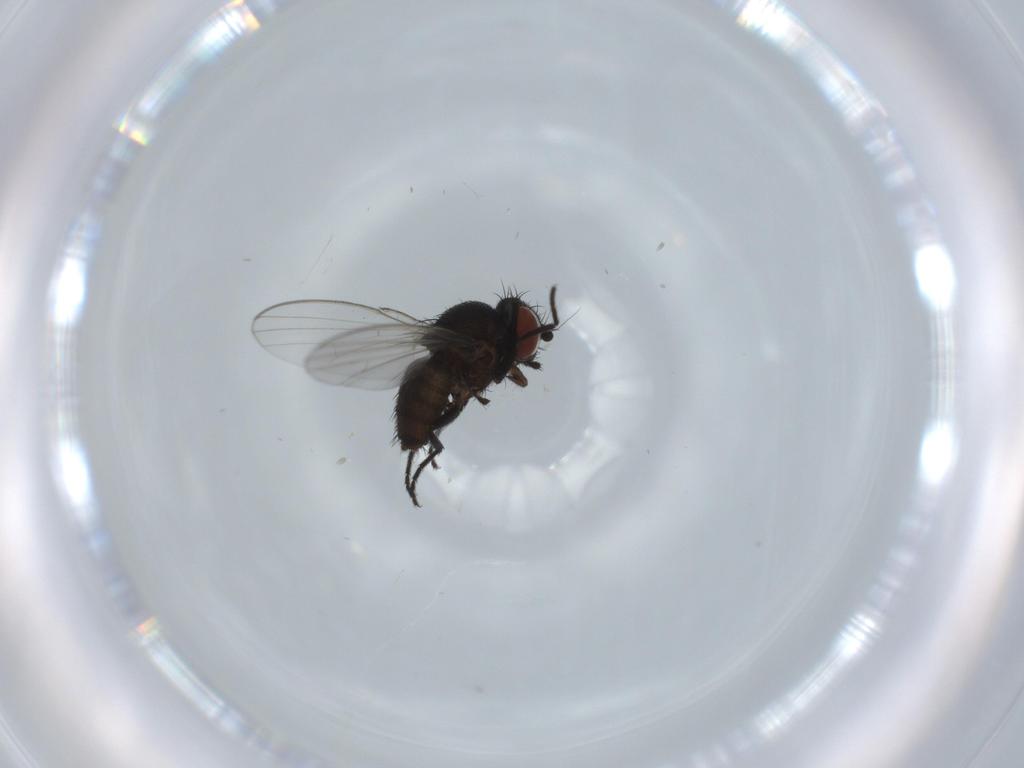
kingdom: Animalia
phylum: Arthropoda
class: Insecta
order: Diptera
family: Milichiidae
